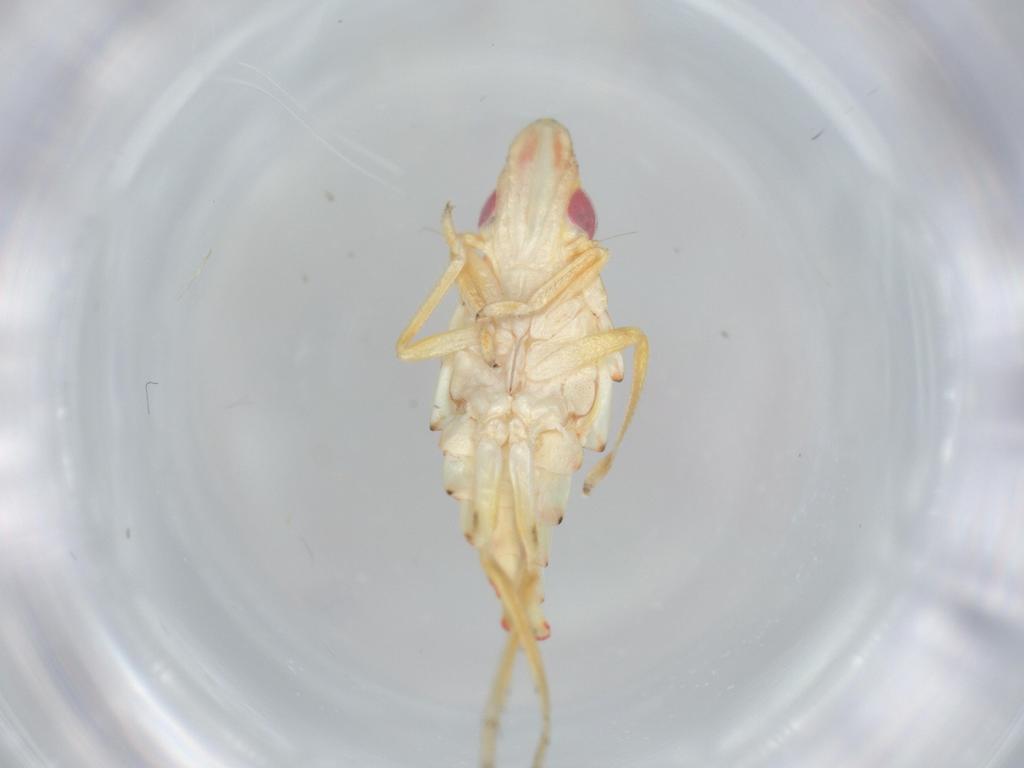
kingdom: Animalia
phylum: Arthropoda
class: Insecta
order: Hemiptera
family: Tropiduchidae
